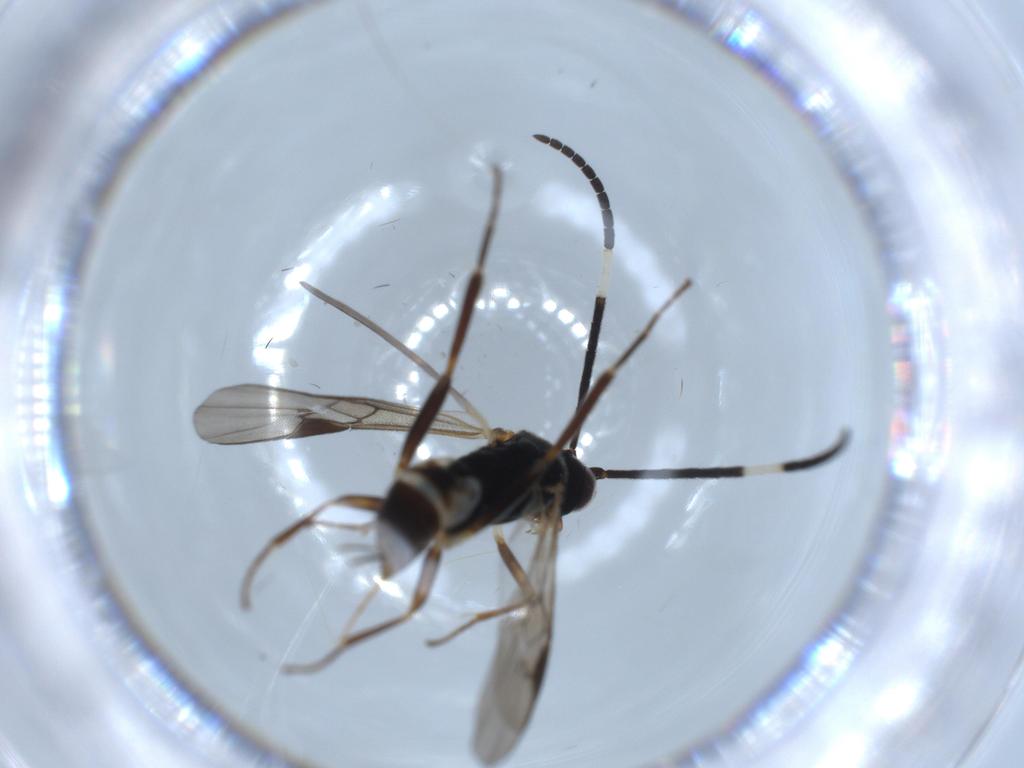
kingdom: Animalia
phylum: Arthropoda
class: Insecta
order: Lepidoptera
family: Tortricidae
